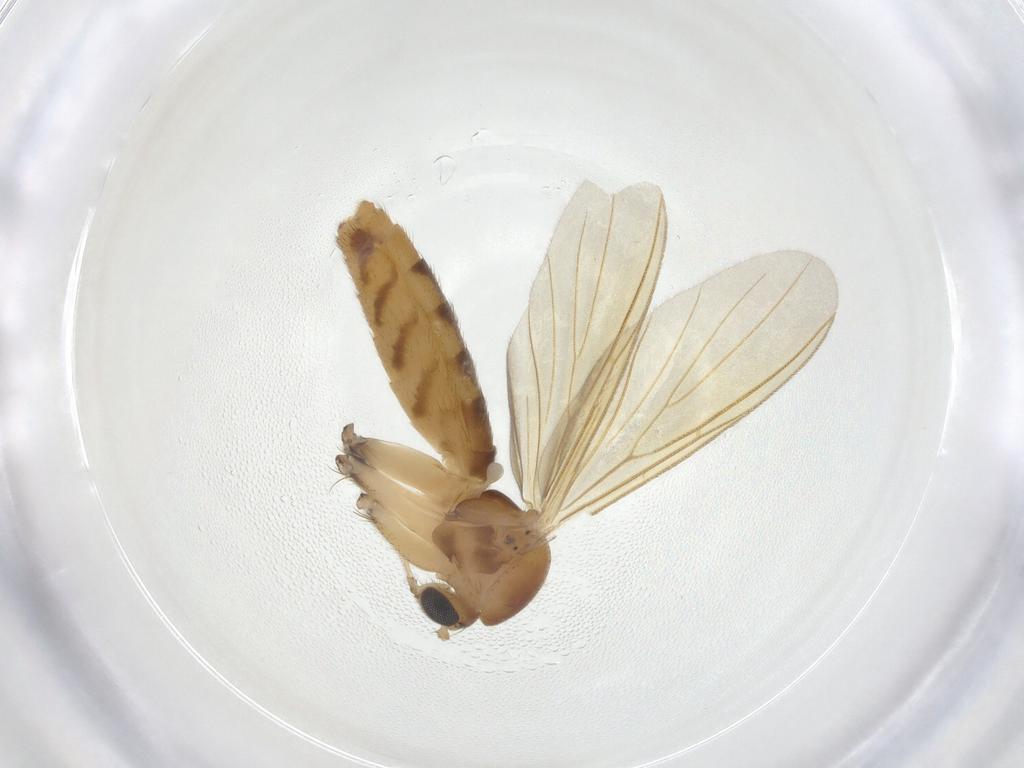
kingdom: Animalia
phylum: Arthropoda
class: Insecta
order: Diptera
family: Mycetophilidae
